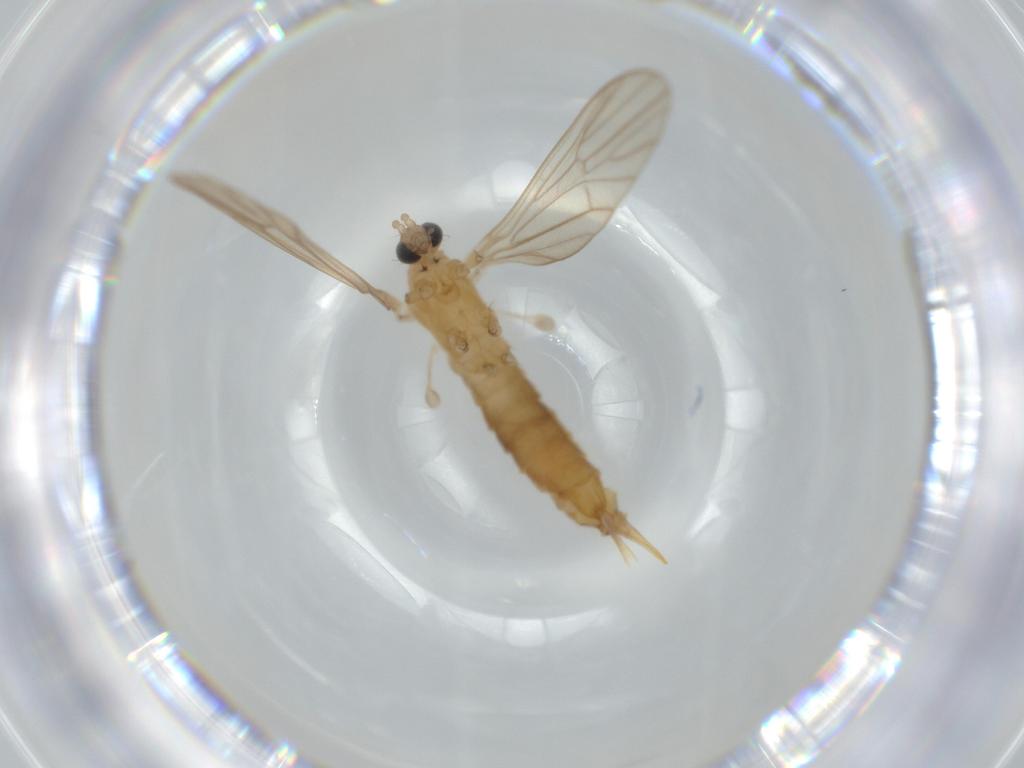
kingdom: Animalia
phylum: Arthropoda
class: Insecta
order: Diptera
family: Limoniidae
